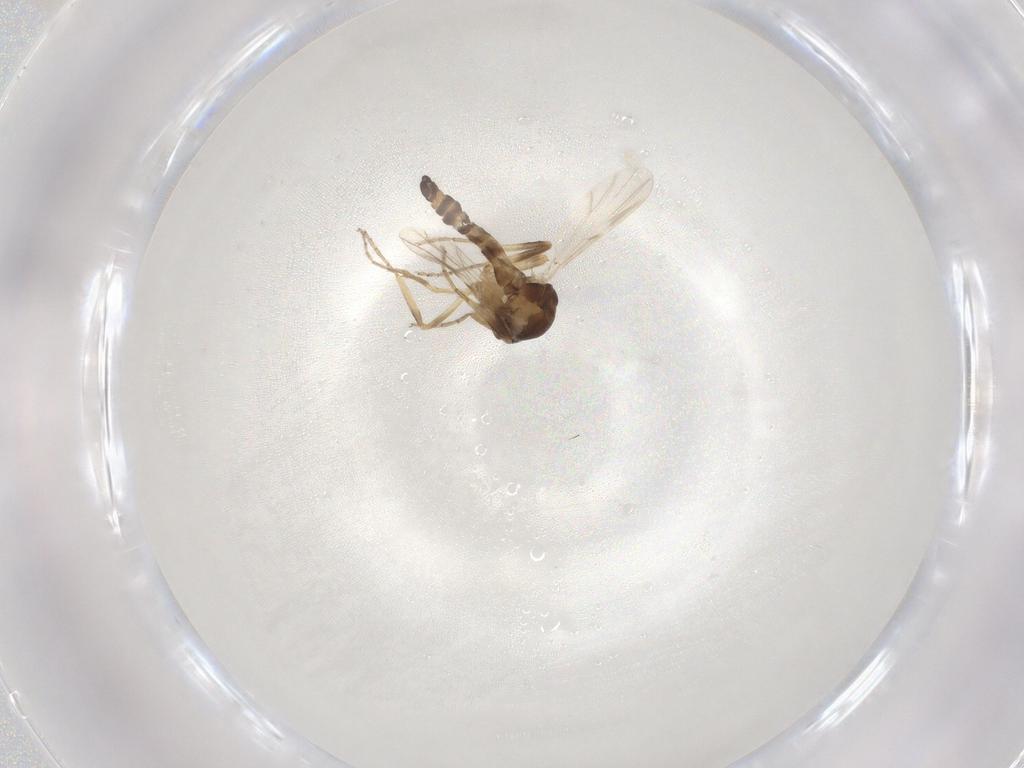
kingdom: Animalia
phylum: Arthropoda
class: Insecta
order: Diptera
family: Ceratopogonidae
